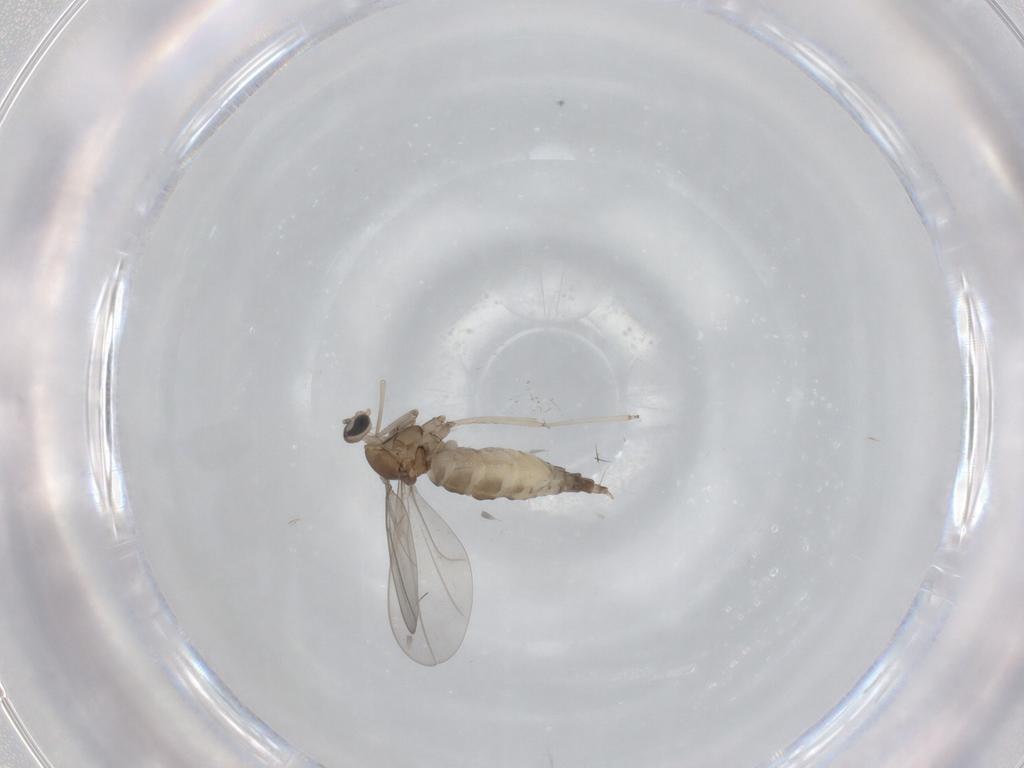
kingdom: Animalia
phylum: Arthropoda
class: Insecta
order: Diptera
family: Cecidomyiidae
